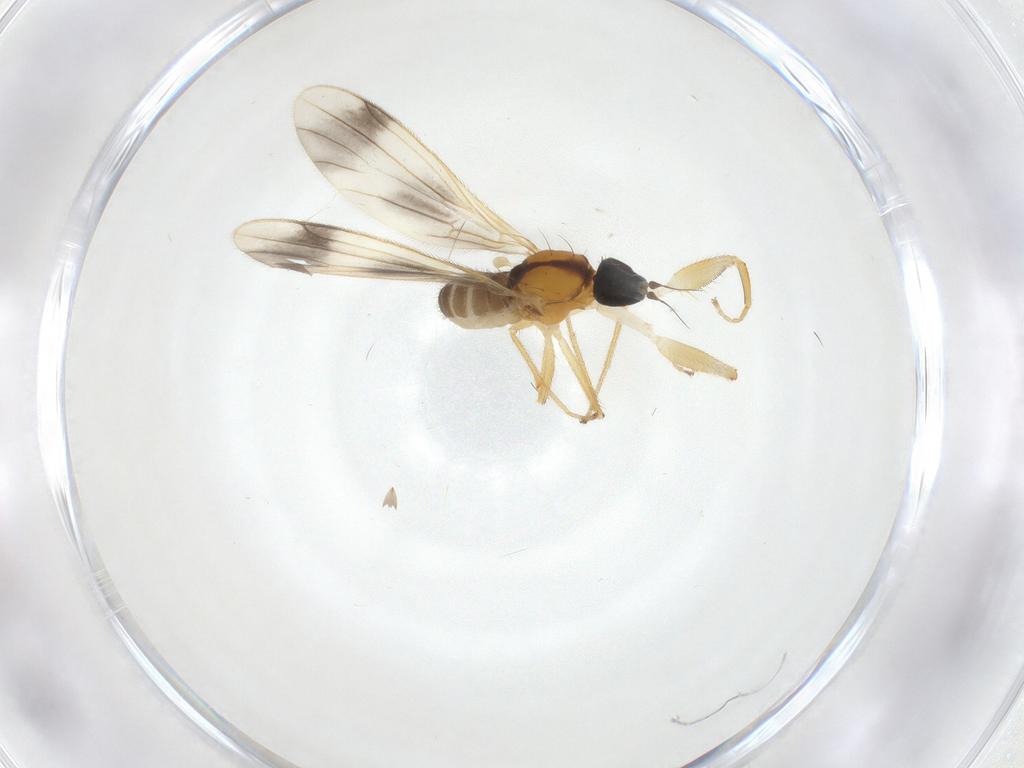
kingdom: Animalia
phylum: Arthropoda
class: Insecta
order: Diptera
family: Empididae
